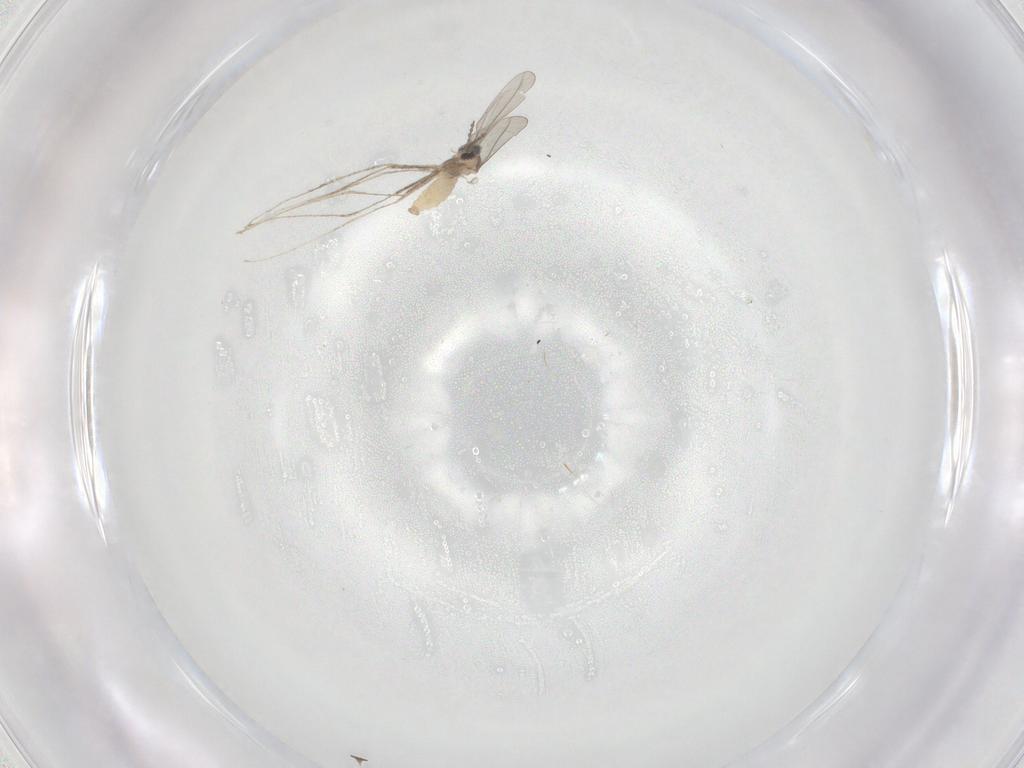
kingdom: Animalia
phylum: Arthropoda
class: Insecta
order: Diptera
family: Cecidomyiidae
